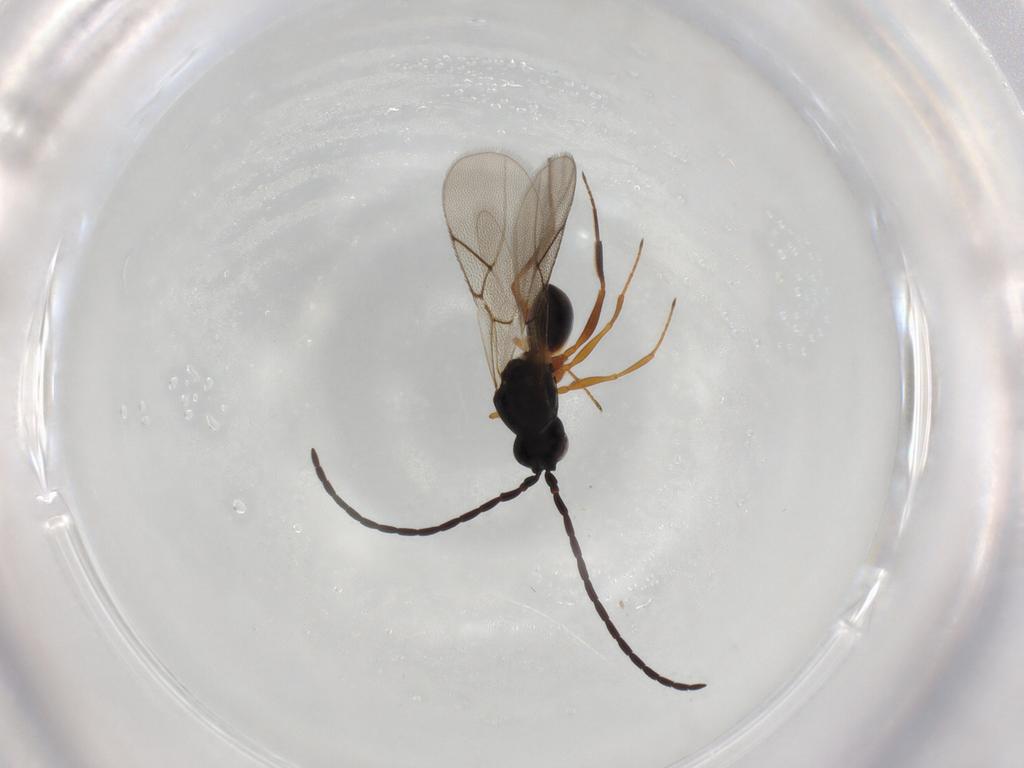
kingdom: Animalia
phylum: Arthropoda
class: Insecta
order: Hymenoptera
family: Figitidae
